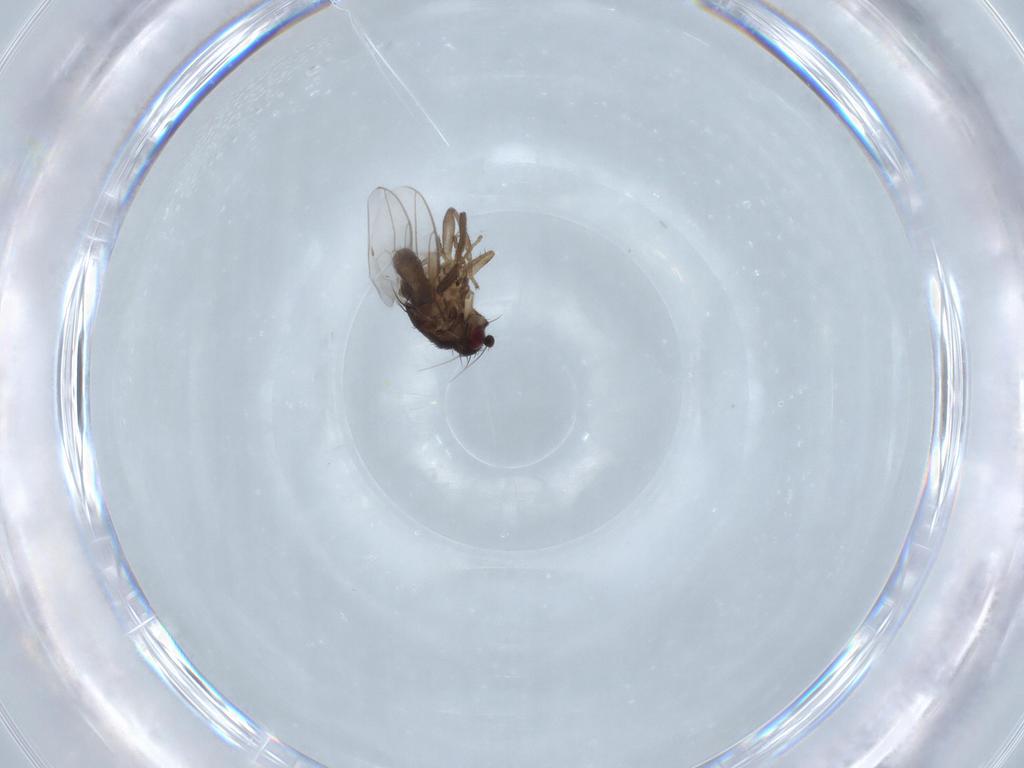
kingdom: Animalia
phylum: Arthropoda
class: Insecta
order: Diptera
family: Sphaeroceridae
